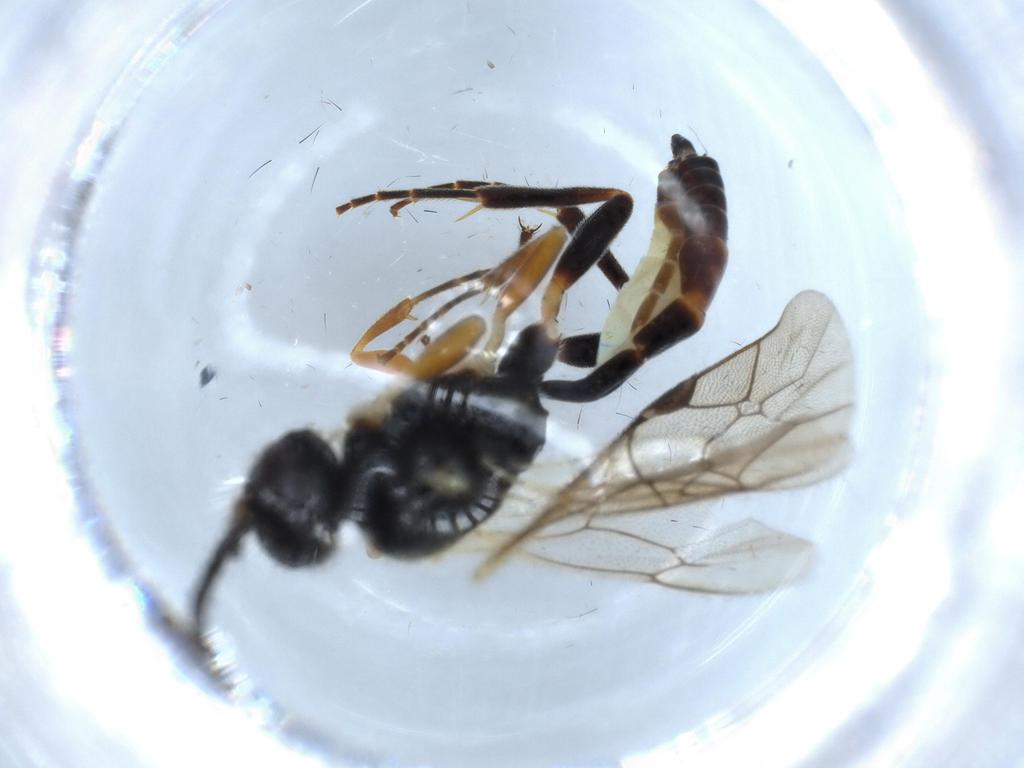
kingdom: Animalia
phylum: Arthropoda
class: Insecta
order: Hymenoptera
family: Ichneumonidae
